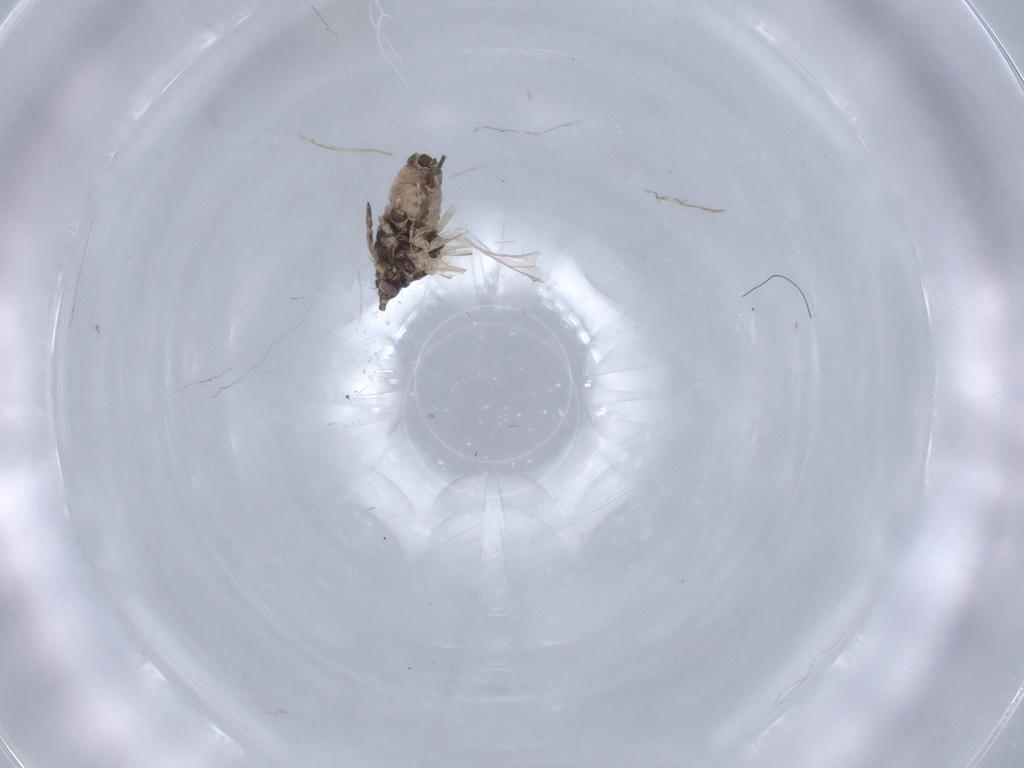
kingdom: Animalia
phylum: Arthropoda
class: Insecta
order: Hemiptera
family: Aphididae
